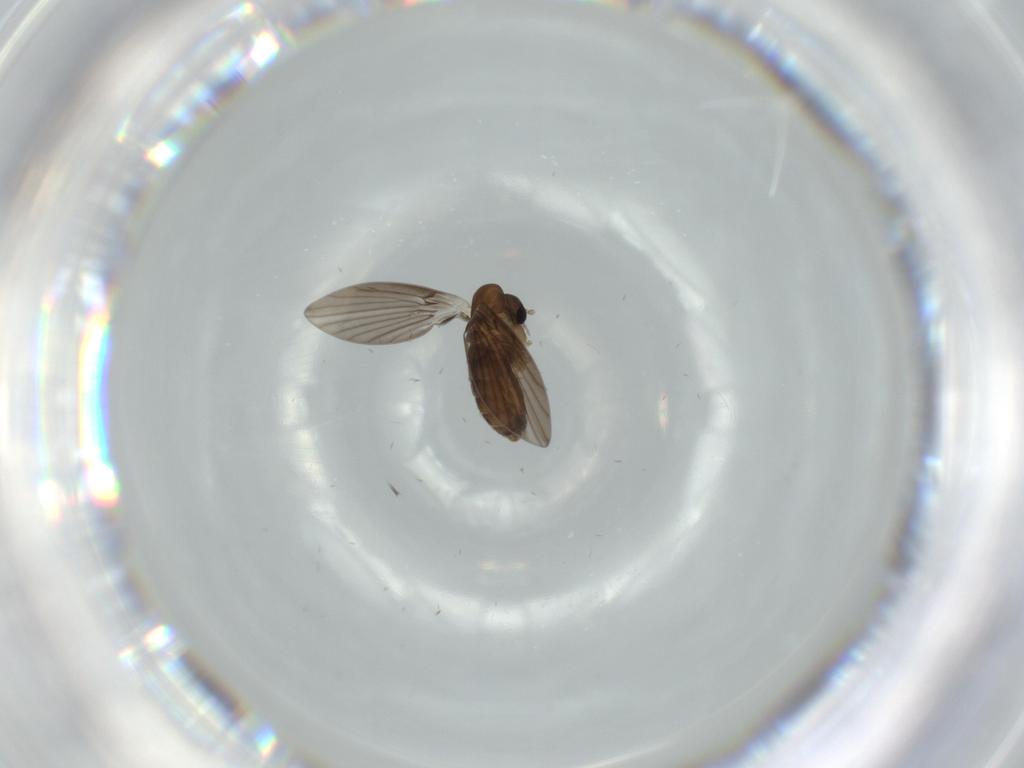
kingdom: Animalia
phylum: Arthropoda
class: Insecta
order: Diptera
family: Psychodidae
